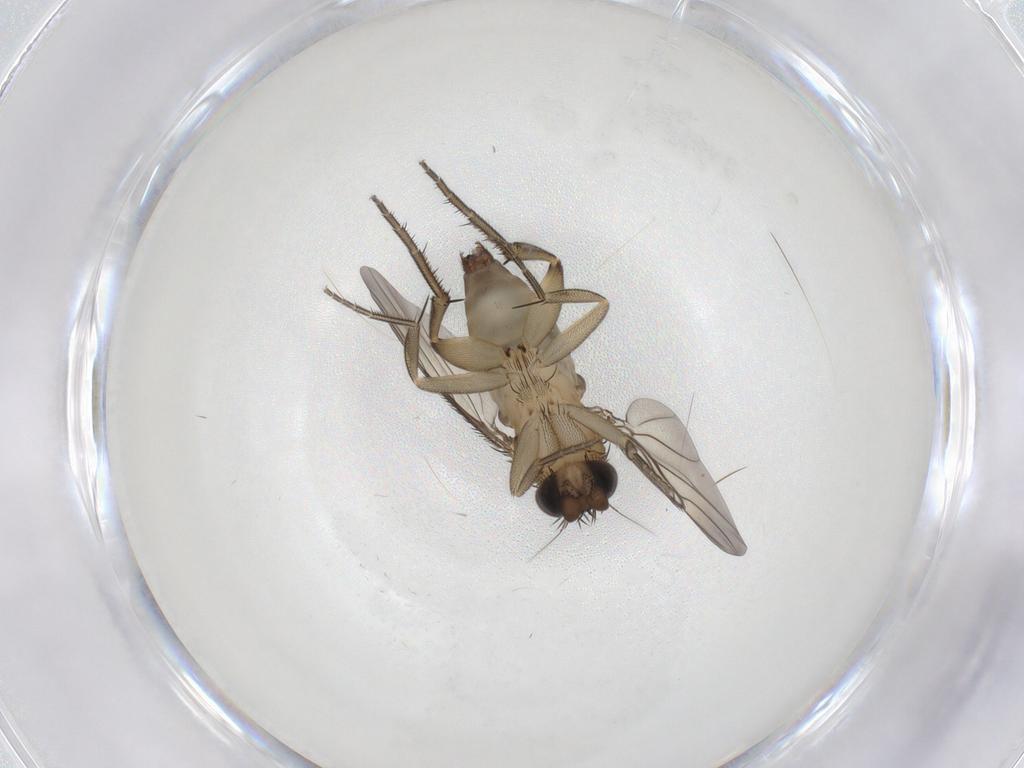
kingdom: Animalia
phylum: Arthropoda
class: Insecta
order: Diptera
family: Phoridae
